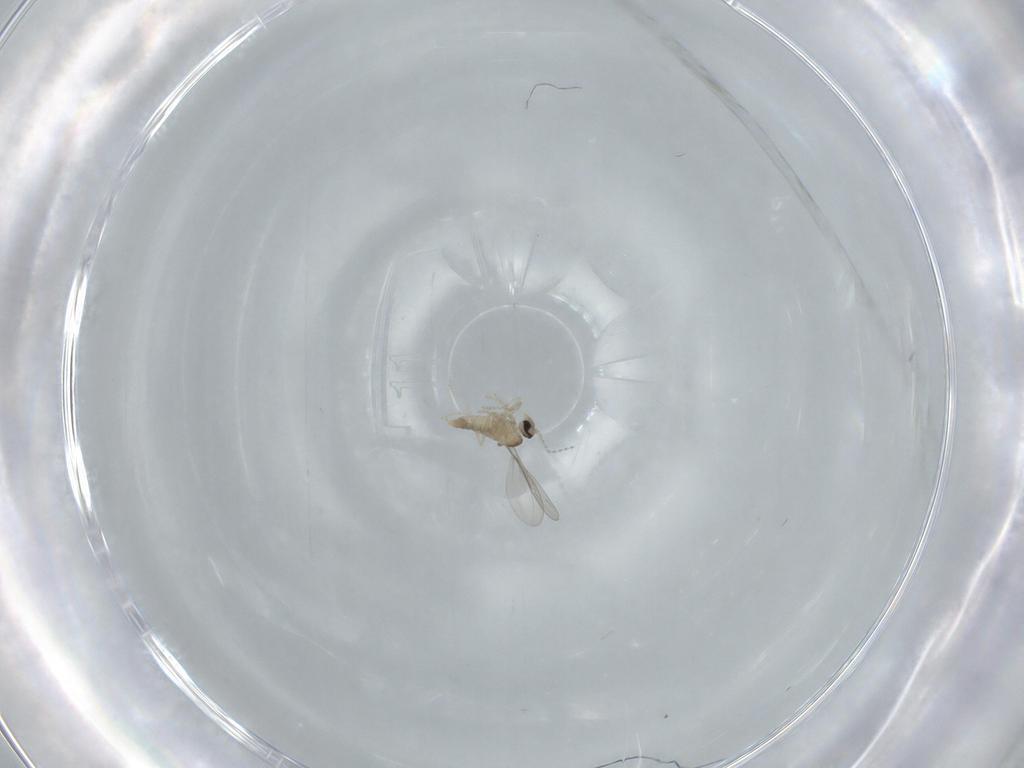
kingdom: Animalia
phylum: Arthropoda
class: Insecta
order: Diptera
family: Cecidomyiidae
